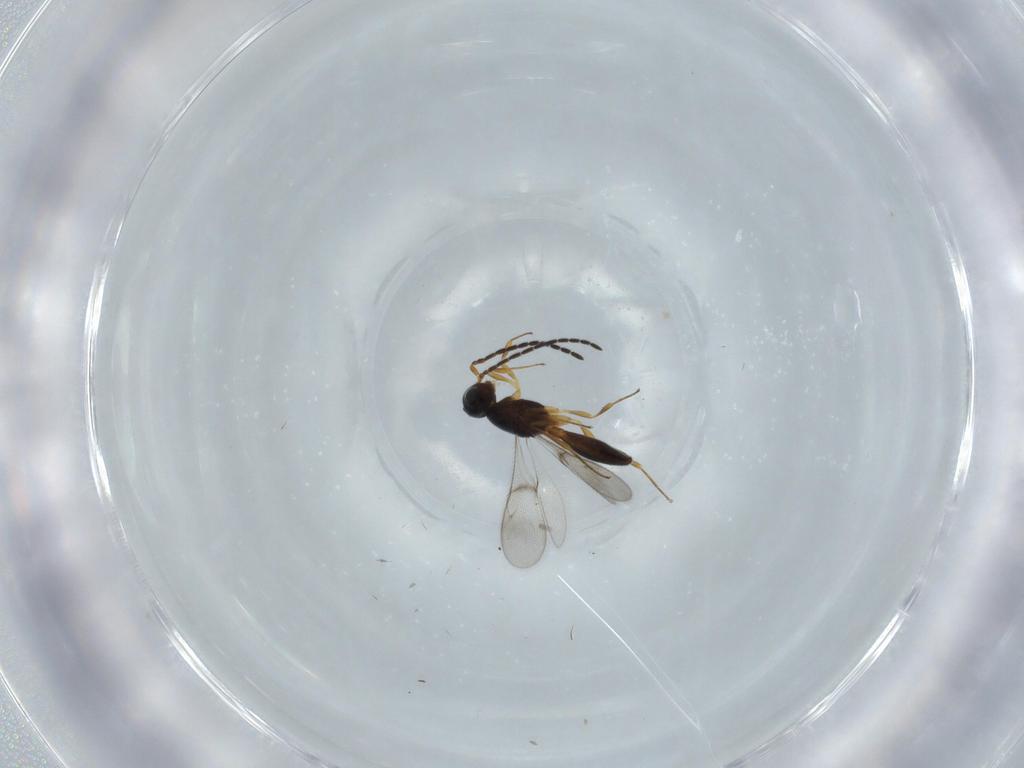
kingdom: Animalia
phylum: Arthropoda
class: Insecta
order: Hymenoptera
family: Scelionidae
